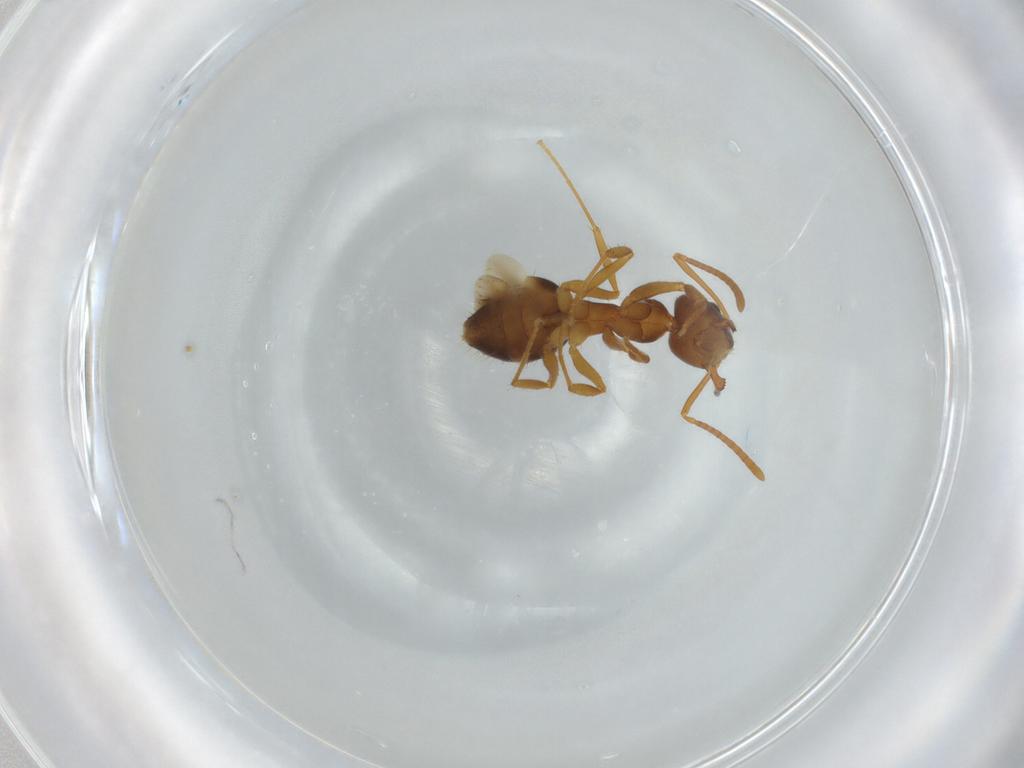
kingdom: Animalia
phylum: Arthropoda
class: Insecta
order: Hymenoptera
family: Formicidae
